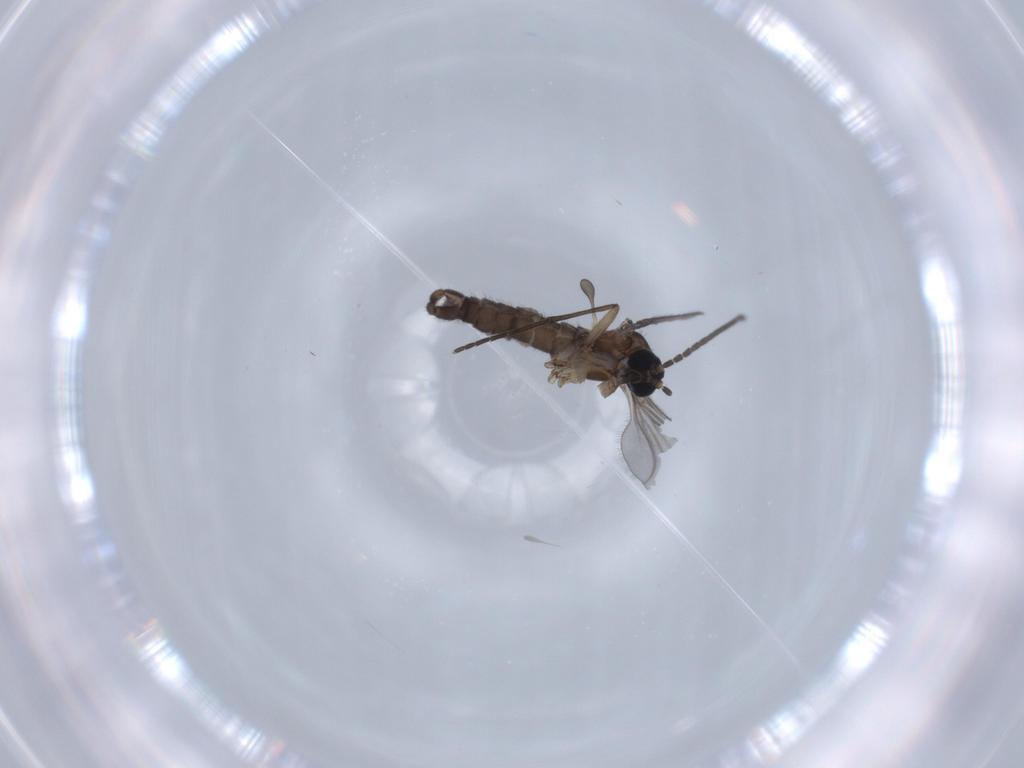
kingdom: Animalia
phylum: Arthropoda
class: Insecta
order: Diptera
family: Sciaridae
